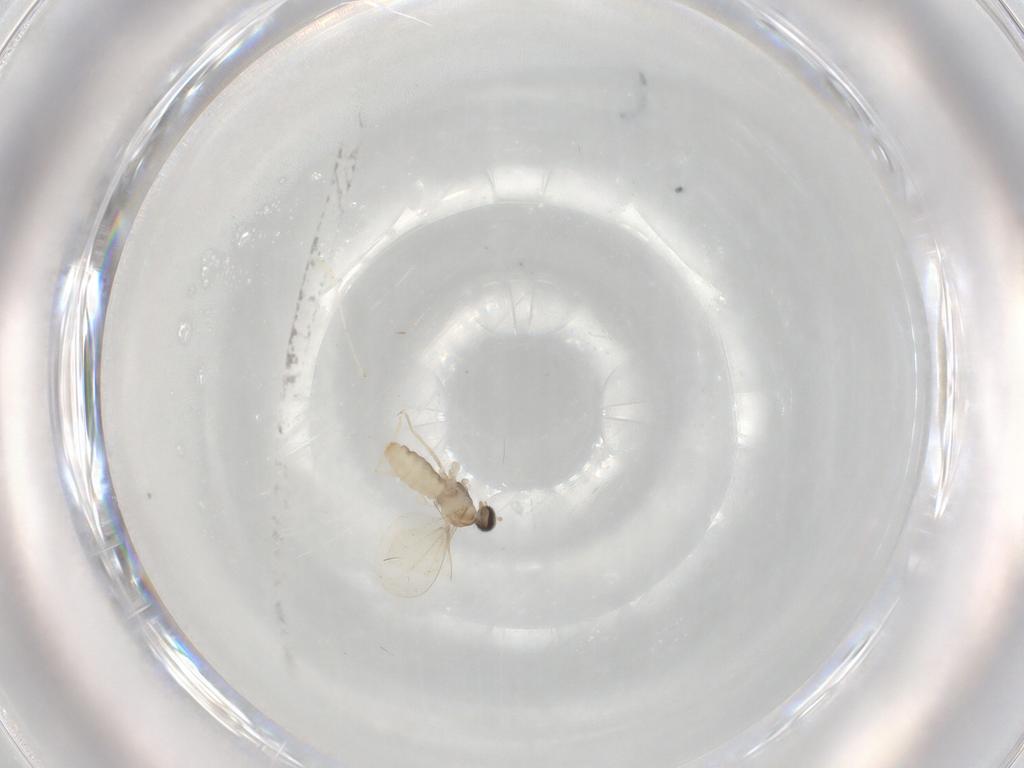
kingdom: Animalia
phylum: Arthropoda
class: Insecta
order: Diptera
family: Cecidomyiidae
